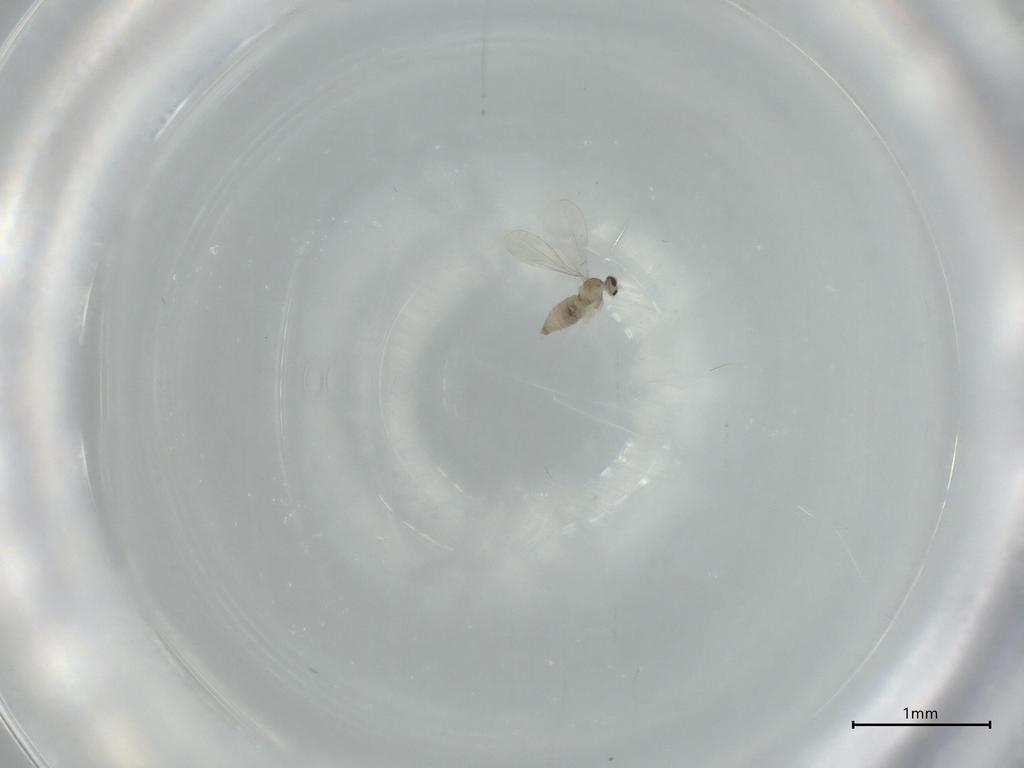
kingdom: Animalia
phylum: Arthropoda
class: Insecta
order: Diptera
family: Cecidomyiidae
